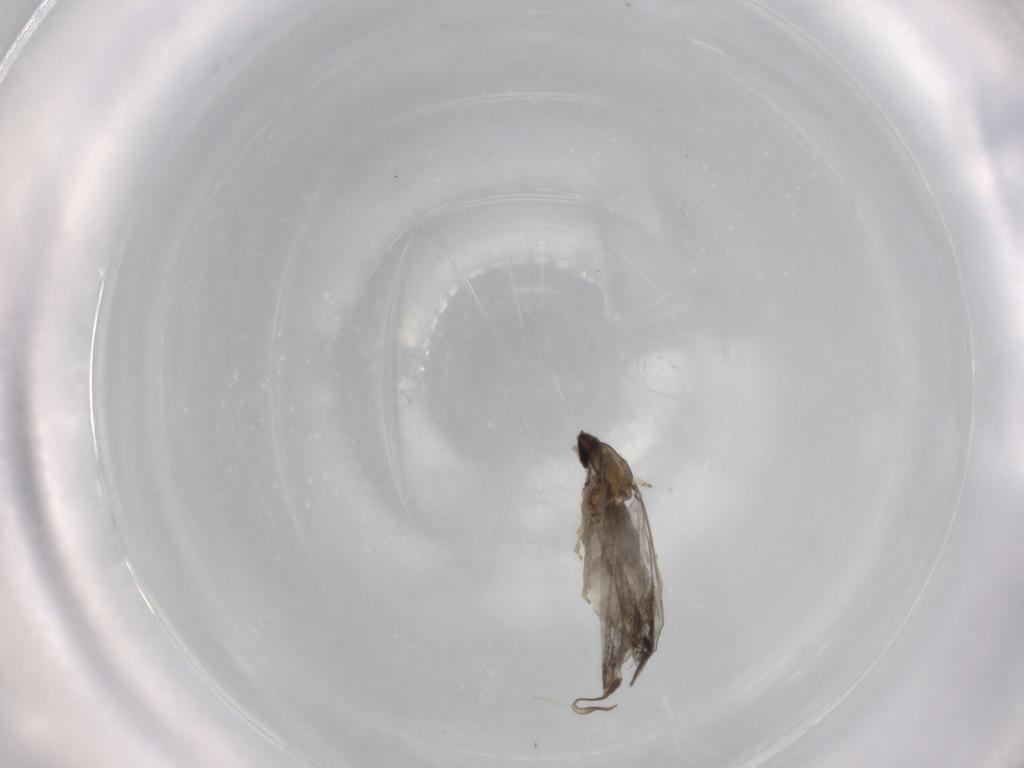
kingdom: Animalia
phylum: Arthropoda
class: Insecta
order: Diptera
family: Cecidomyiidae
